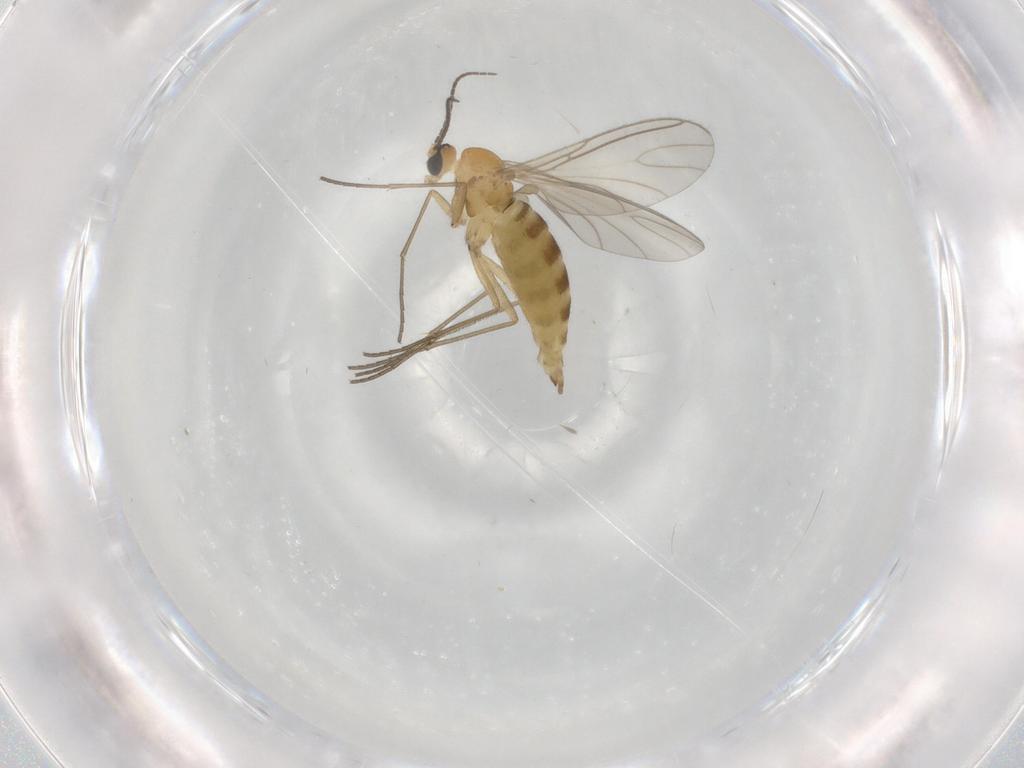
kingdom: Animalia
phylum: Arthropoda
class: Insecta
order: Diptera
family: Sciaridae
